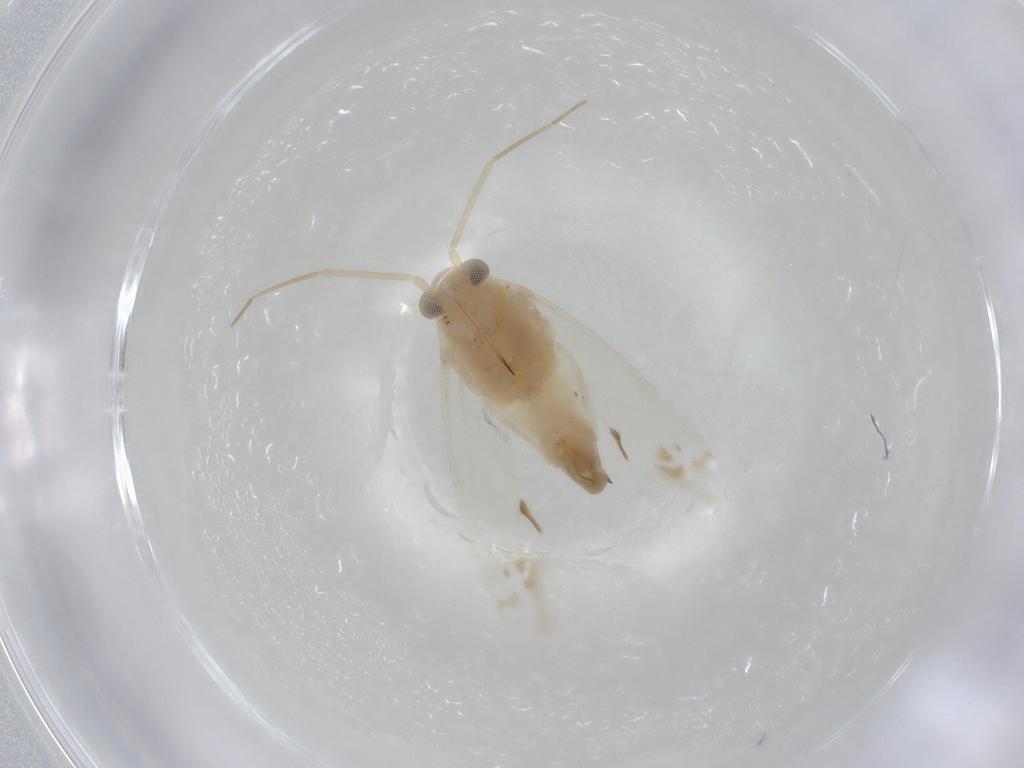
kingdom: Animalia
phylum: Arthropoda
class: Insecta
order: Hemiptera
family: Miridae
